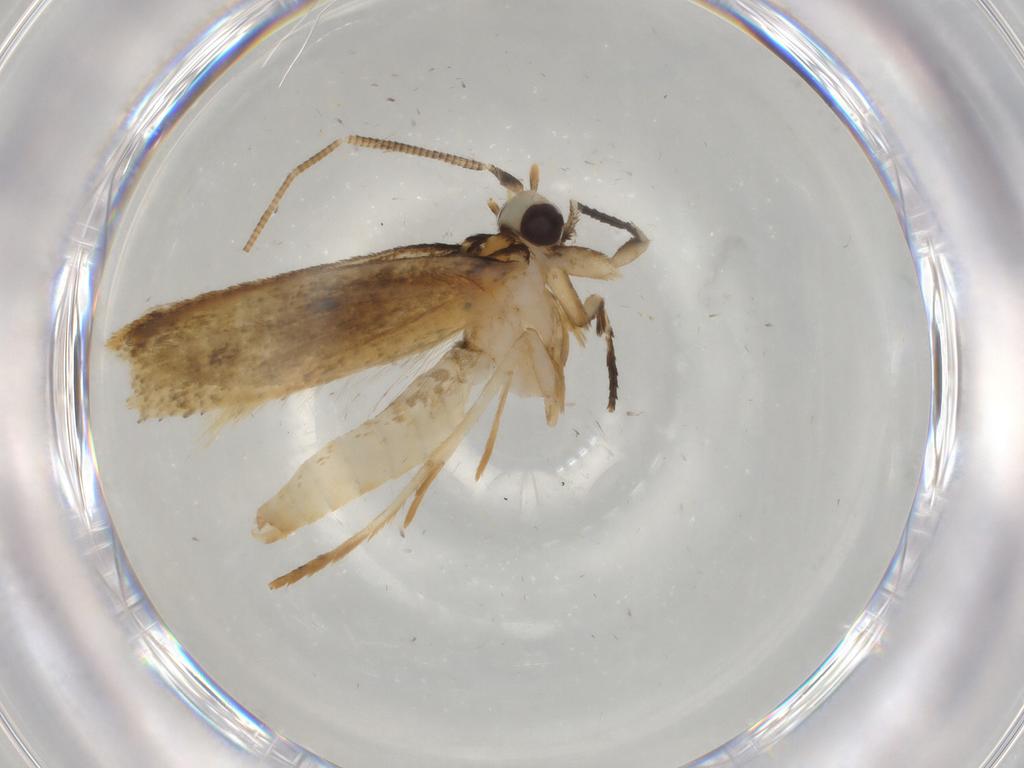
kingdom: Animalia
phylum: Arthropoda
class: Insecta
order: Lepidoptera
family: Tineidae
